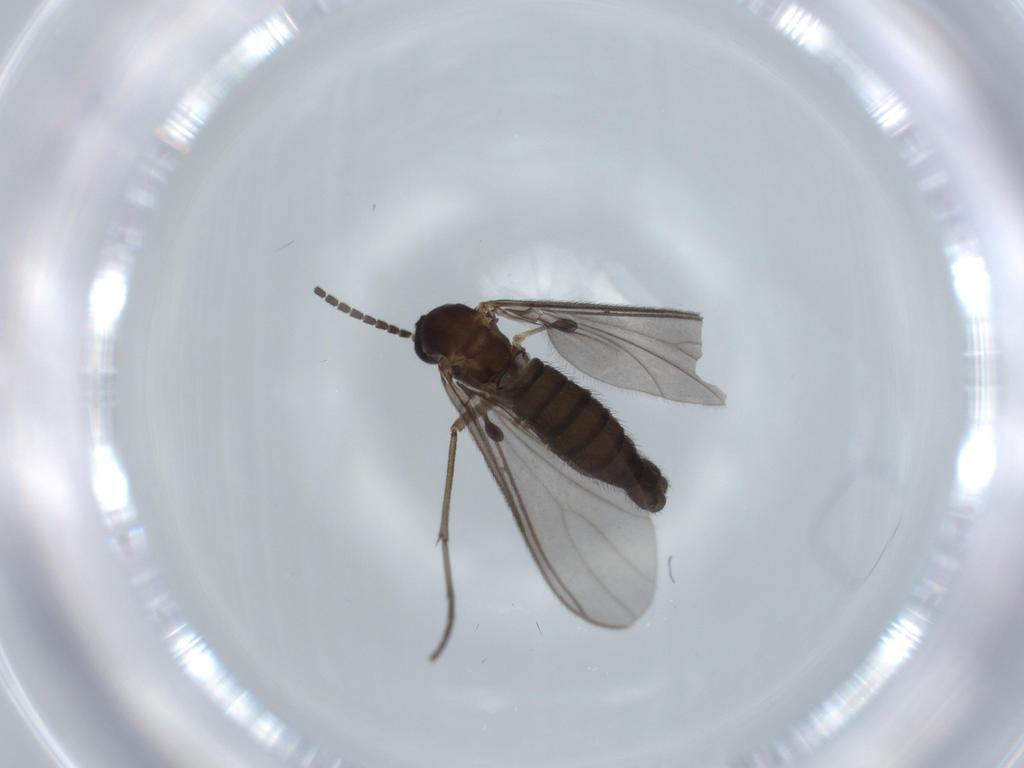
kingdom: Animalia
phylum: Arthropoda
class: Insecta
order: Diptera
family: Sciaridae
